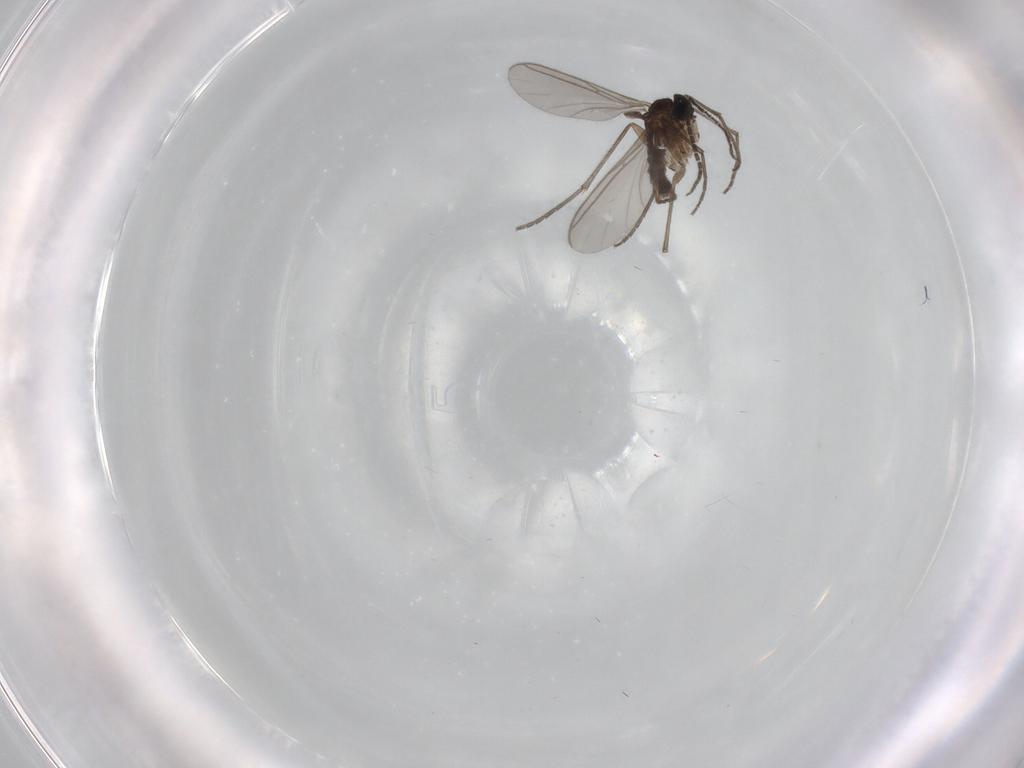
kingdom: Animalia
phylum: Arthropoda
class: Insecta
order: Diptera
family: Sciaridae
